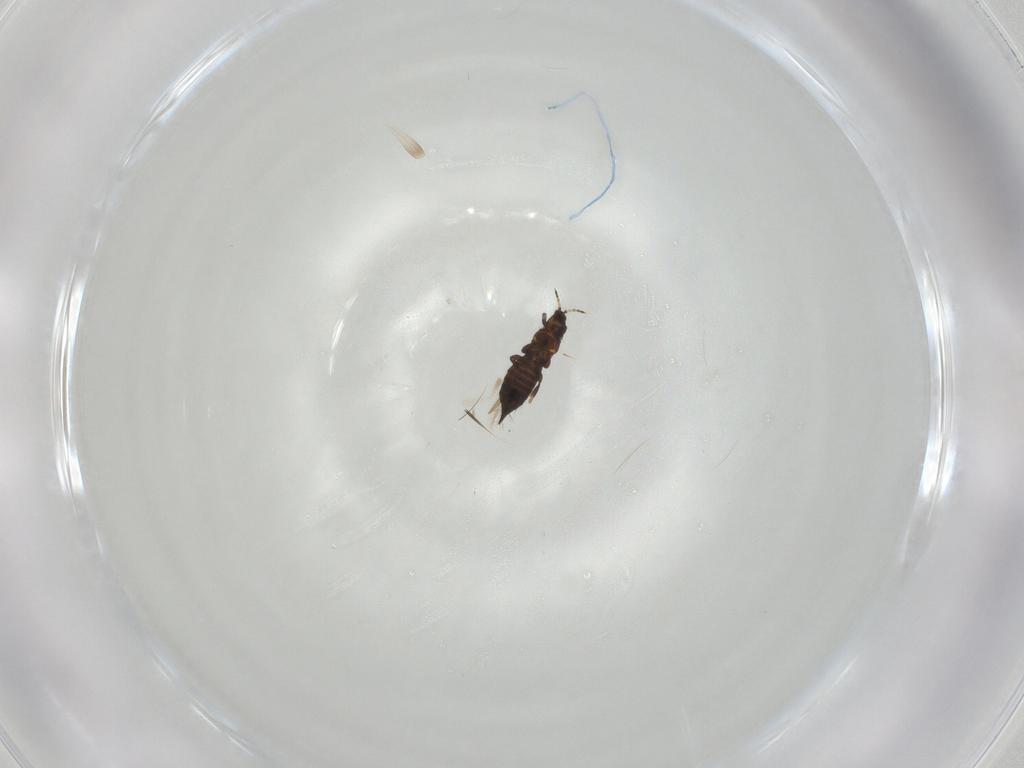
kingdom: Animalia
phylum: Arthropoda
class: Insecta
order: Thysanoptera
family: Thripidae
